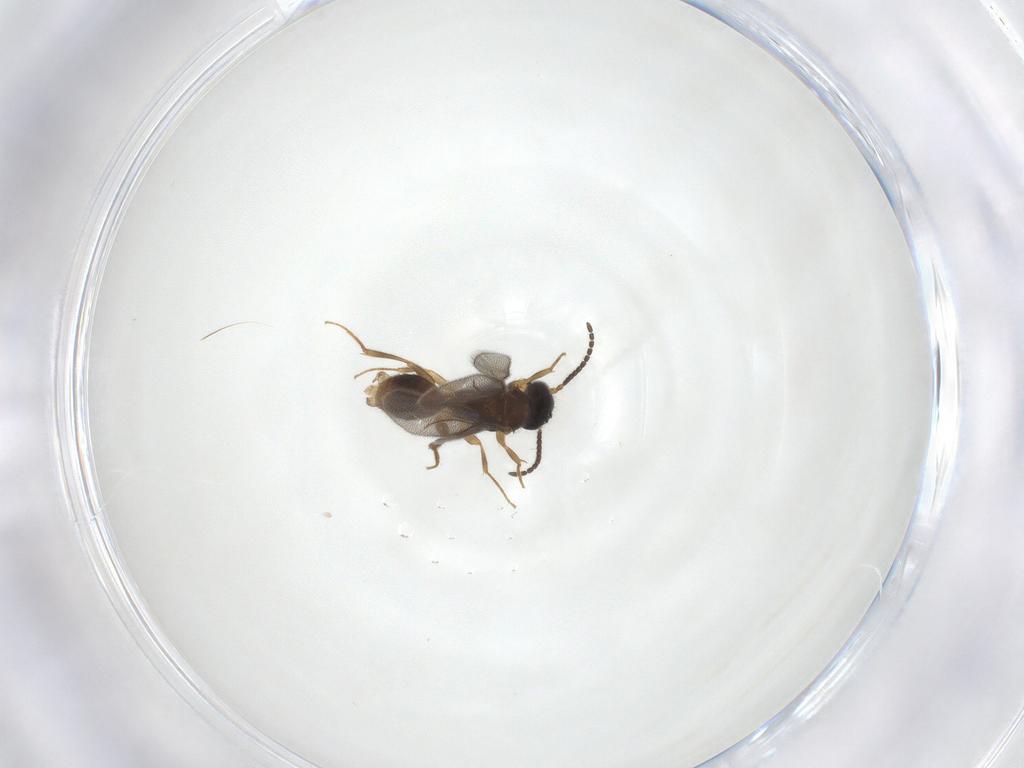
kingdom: Animalia
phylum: Arthropoda
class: Insecta
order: Hymenoptera
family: Bethylidae
